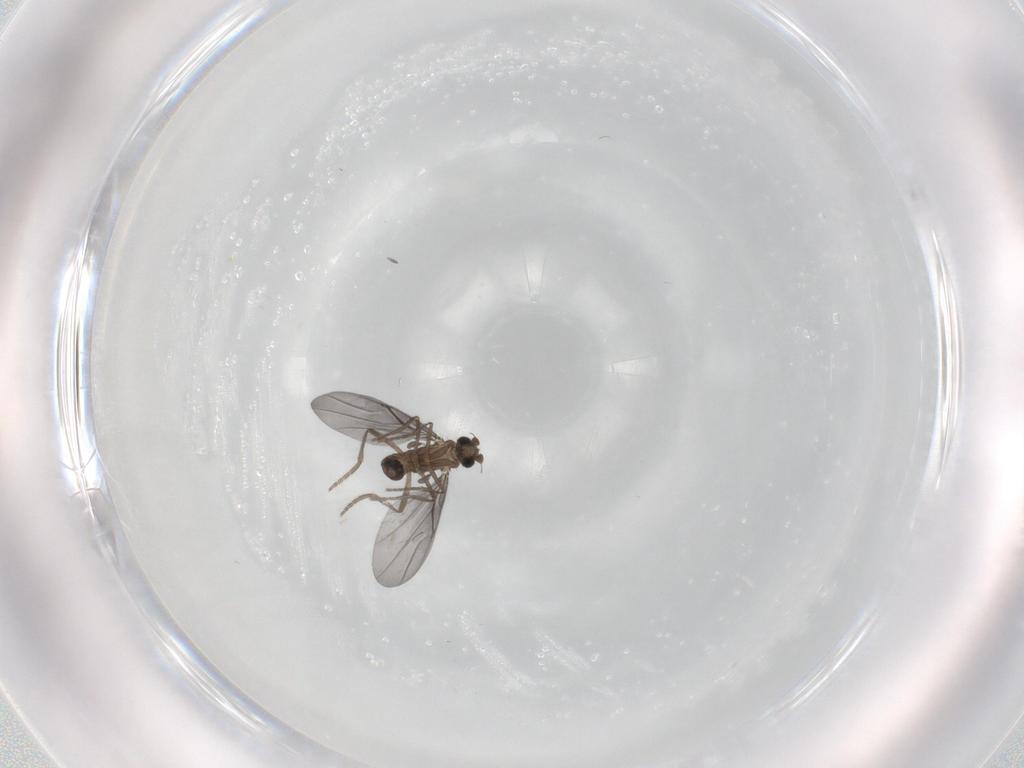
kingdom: Animalia
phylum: Arthropoda
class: Insecta
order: Diptera
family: Phoridae
